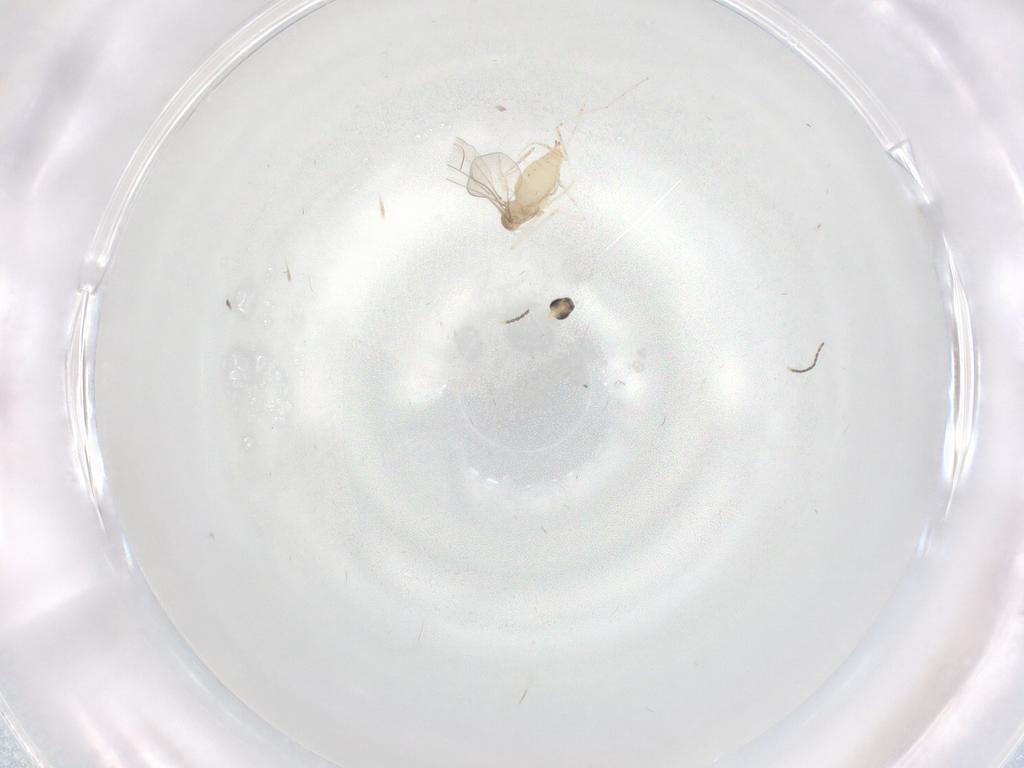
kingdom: Animalia
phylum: Arthropoda
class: Insecta
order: Diptera
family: Cecidomyiidae
